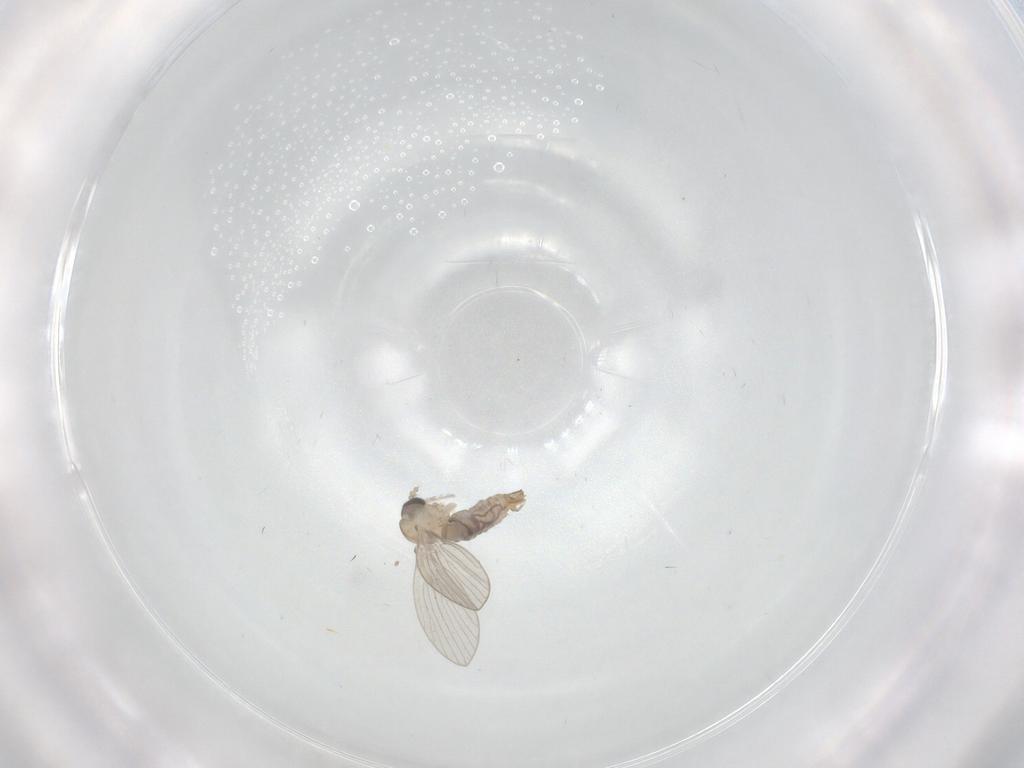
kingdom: Animalia
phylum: Arthropoda
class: Insecta
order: Diptera
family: Psychodidae
